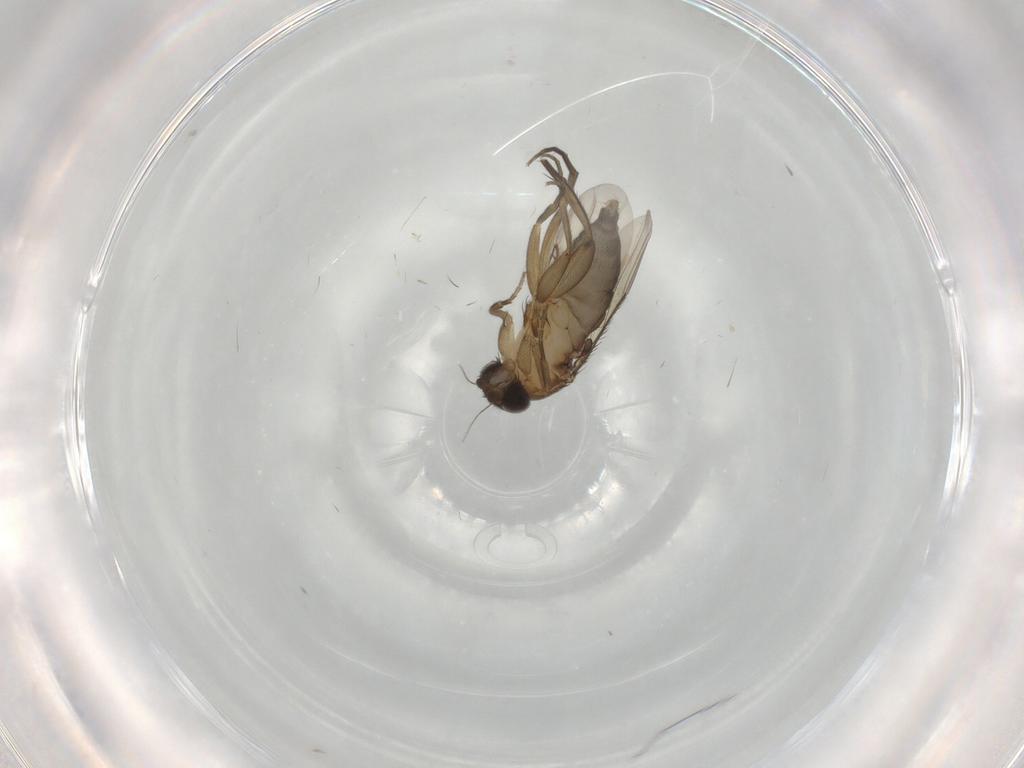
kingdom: Animalia
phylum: Arthropoda
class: Insecta
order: Diptera
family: Phoridae
